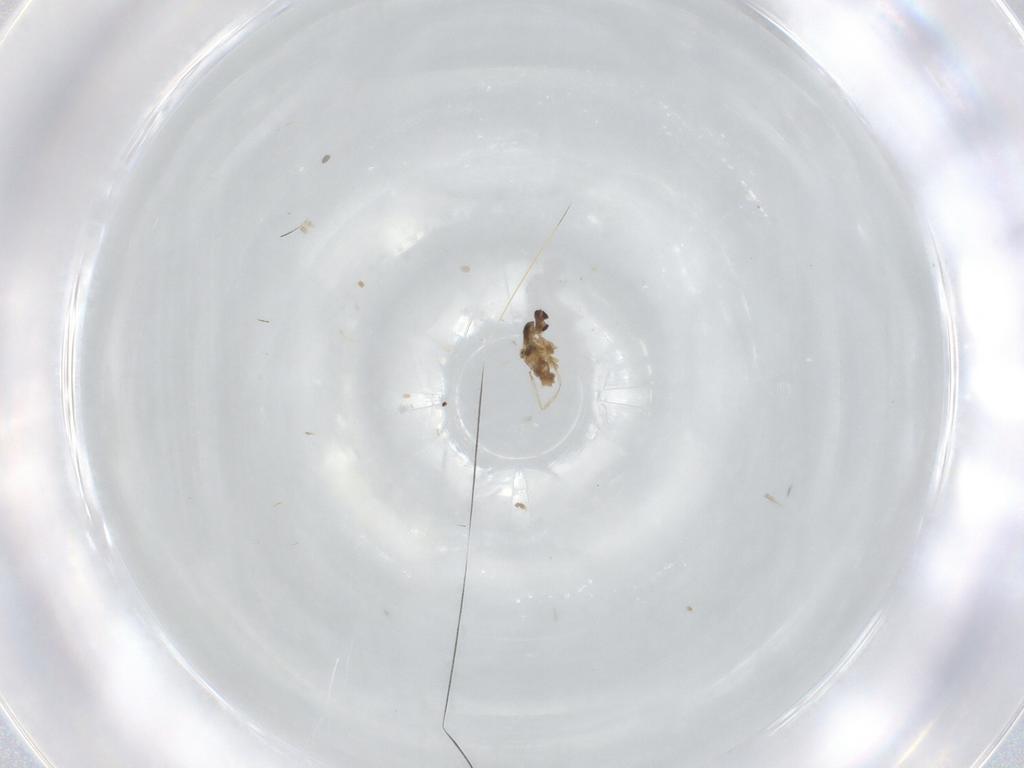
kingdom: Animalia
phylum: Arthropoda
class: Insecta
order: Diptera
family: Cecidomyiidae
